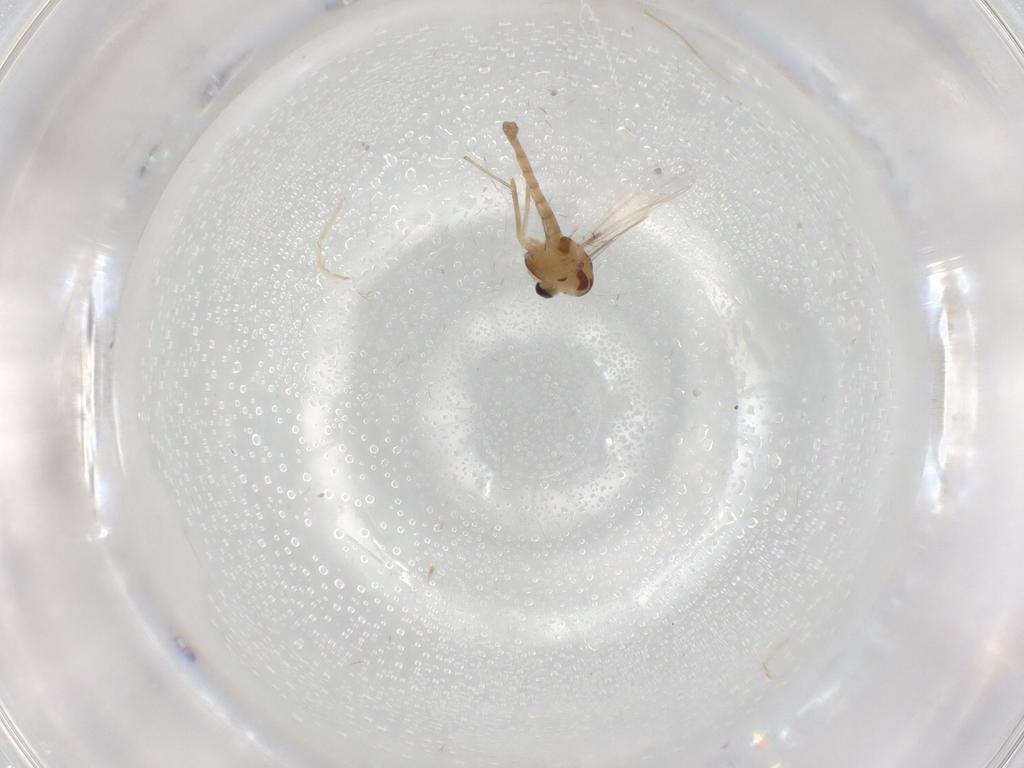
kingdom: Animalia
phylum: Arthropoda
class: Insecta
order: Diptera
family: Chironomidae
